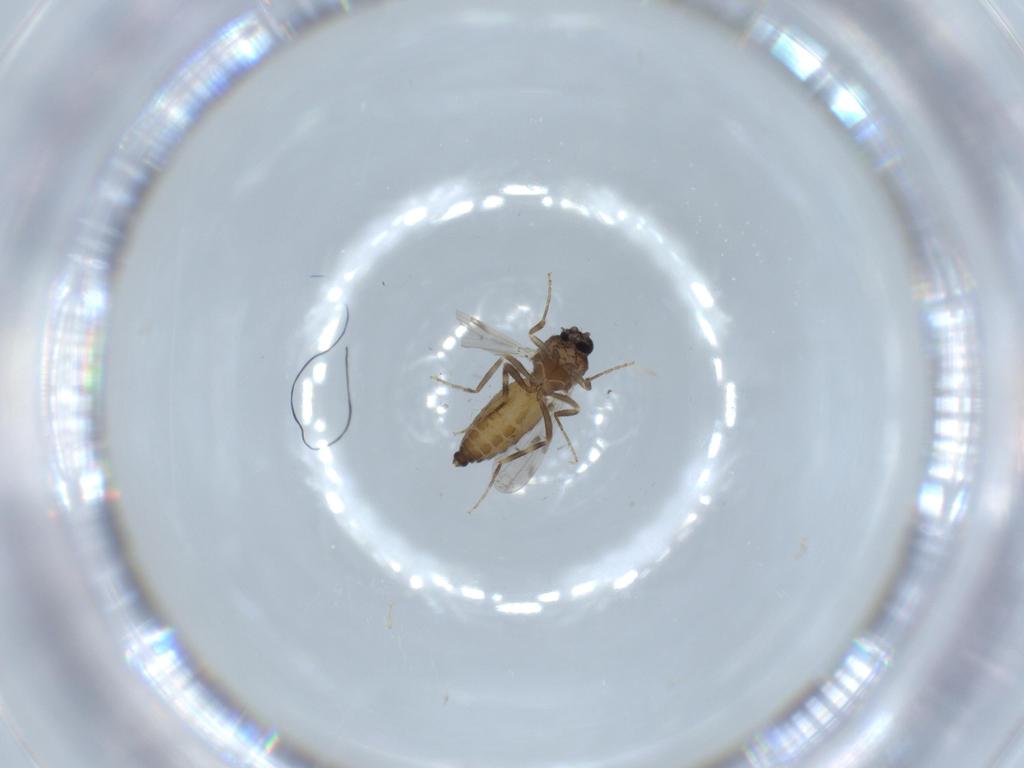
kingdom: Animalia
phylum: Arthropoda
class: Insecta
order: Diptera
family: Ceratopogonidae
